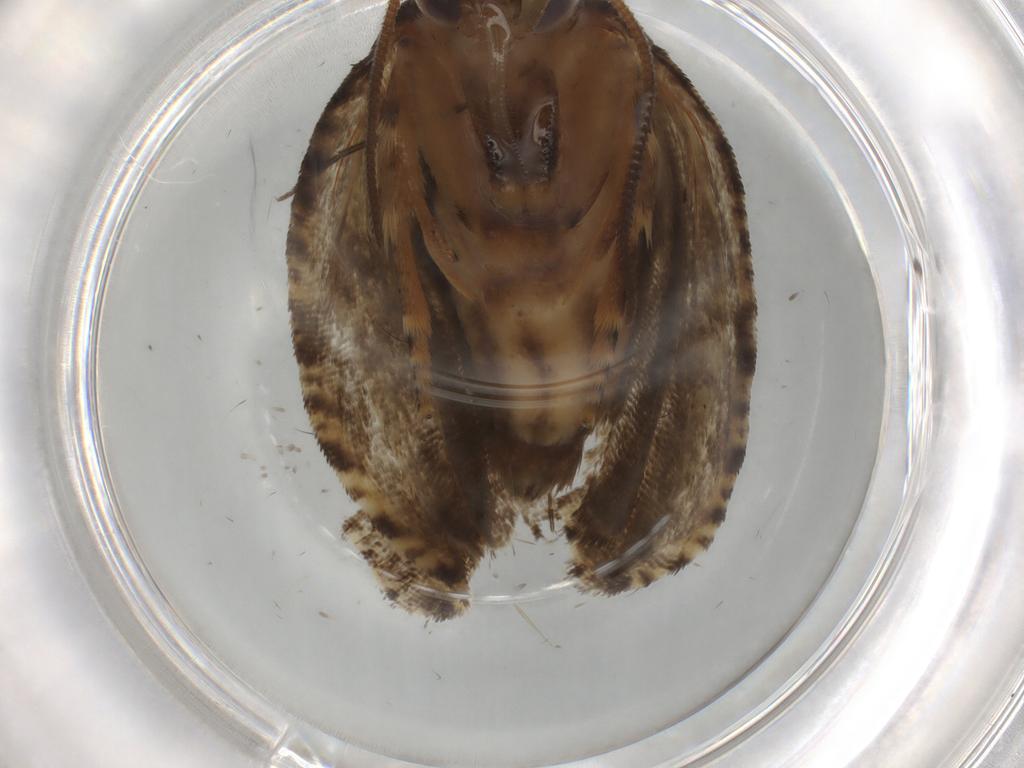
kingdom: Animalia
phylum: Arthropoda
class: Insecta
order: Lepidoptera
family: Tortricidae
